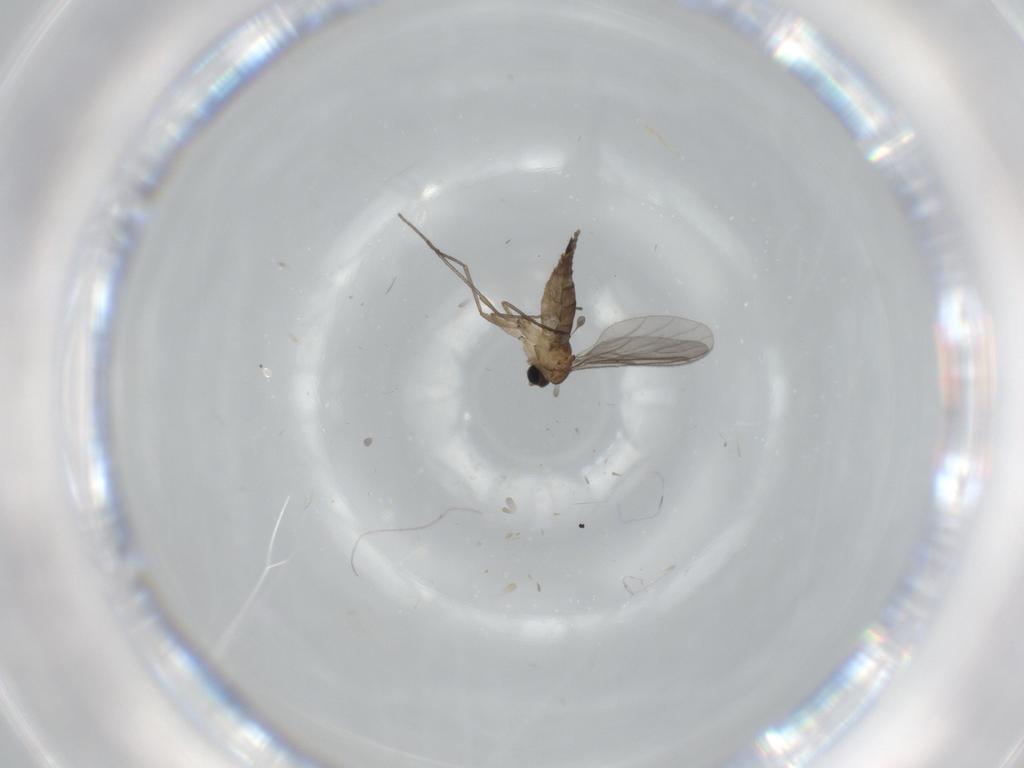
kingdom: Animalia
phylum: Arthropoda
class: Insecta
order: Diptera
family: Sciaridae
